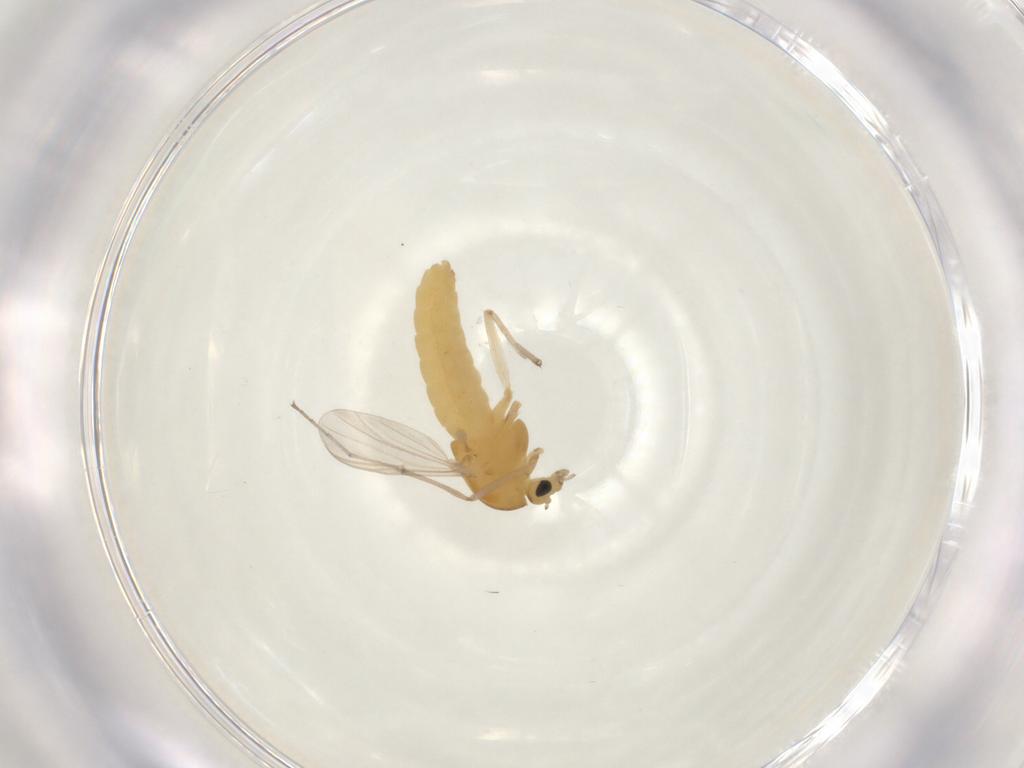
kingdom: Animalia
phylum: Arthropoda
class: Insecta
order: Diptera
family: Chironomidae
